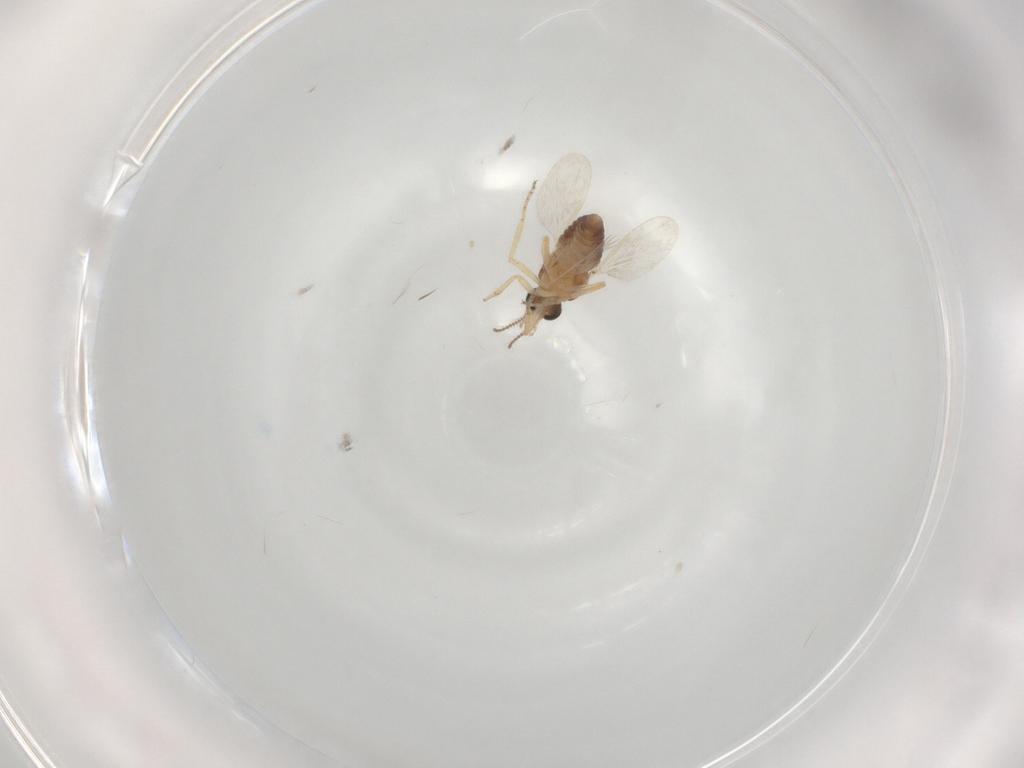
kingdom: Animalia
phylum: Arthropoda
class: Insecta
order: Diptera
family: Ceratopogonidae
